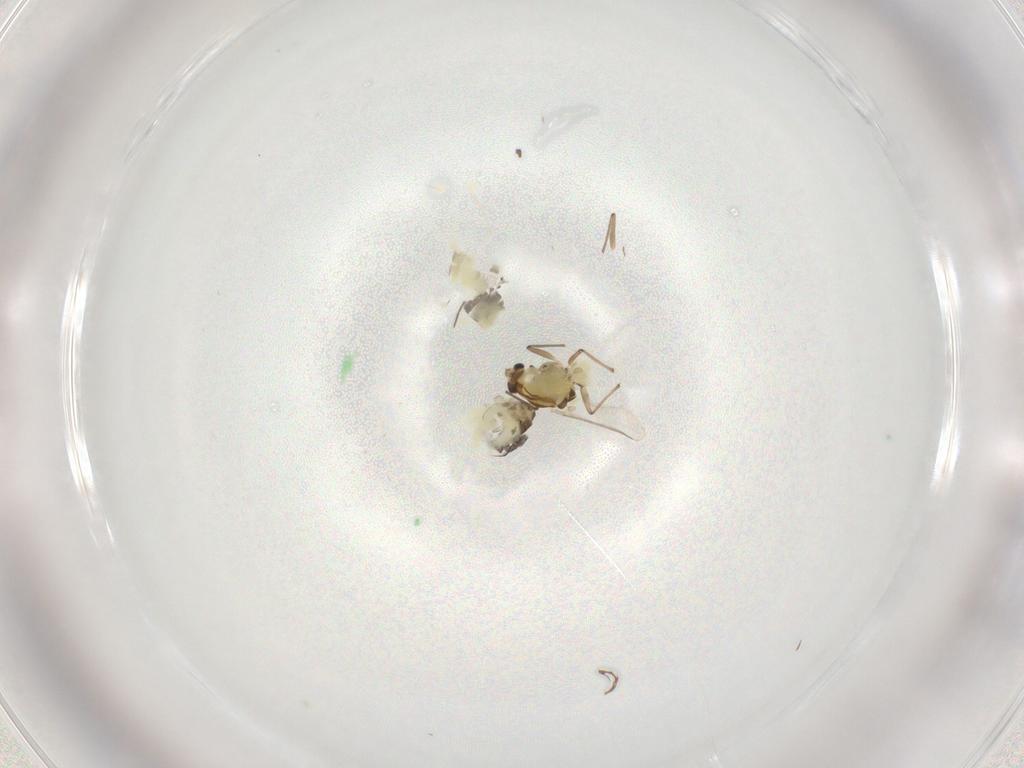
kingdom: Animalia
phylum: Arthropoda
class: Insecta
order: Diptera
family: Chironomidae
